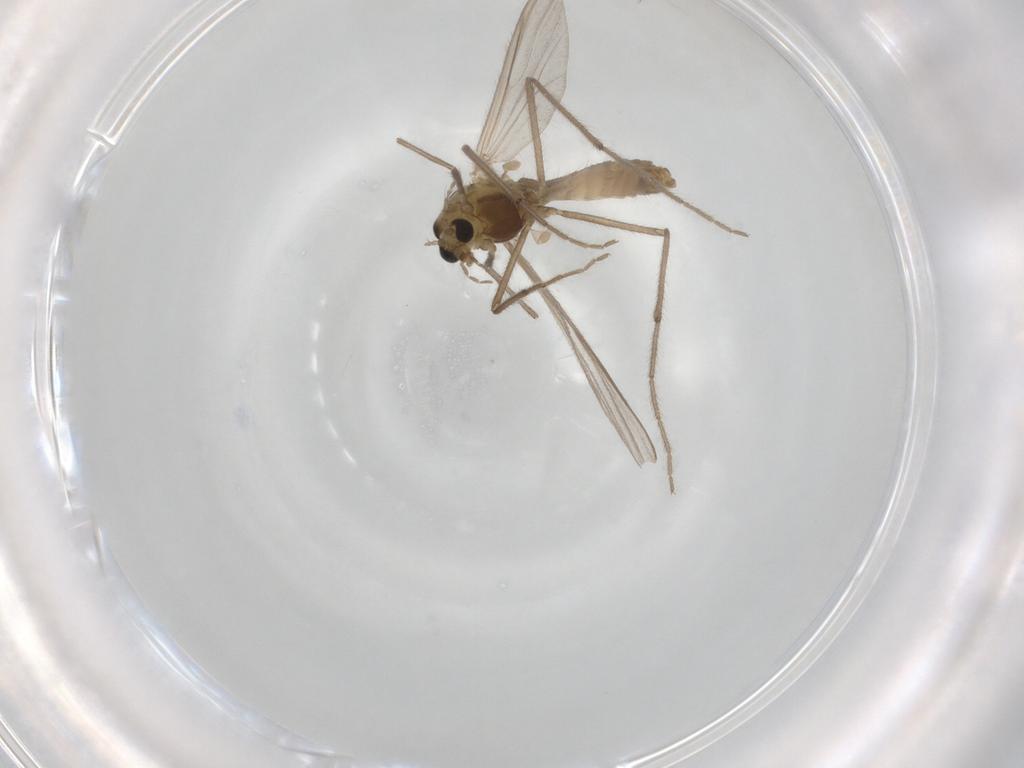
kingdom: Animalia
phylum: Arthropoda
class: Insecta
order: Diptera
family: Chironomidae
